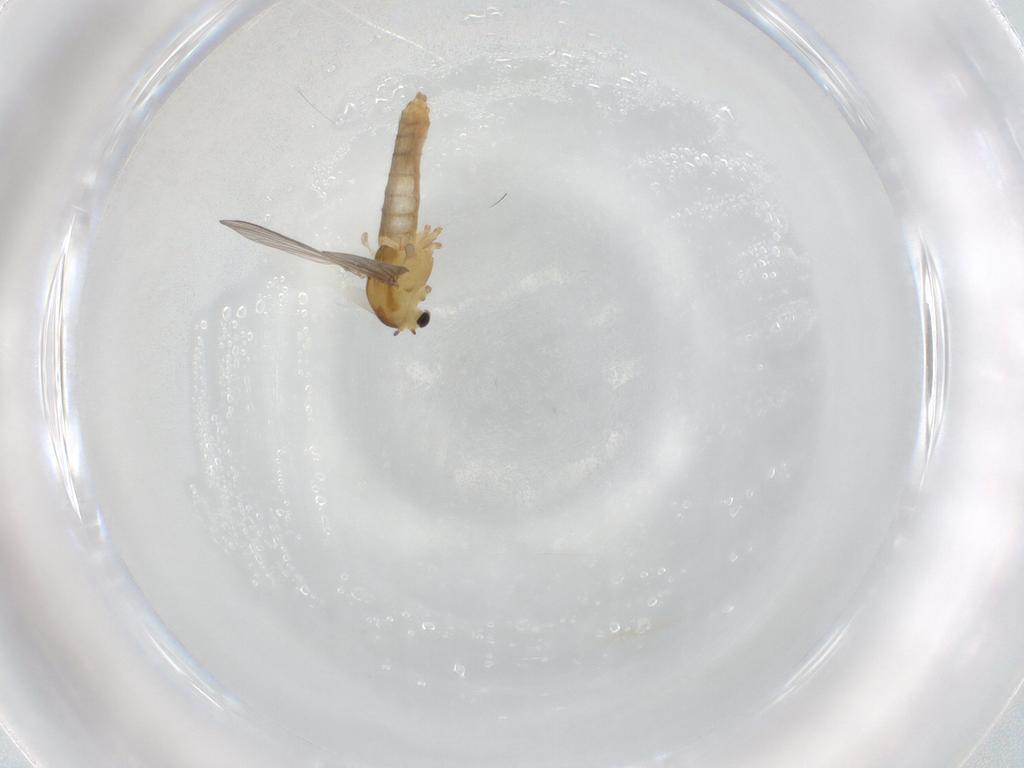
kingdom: Animalia
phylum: Arthropoda
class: Insecta
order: Diptera
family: Chironomidae
